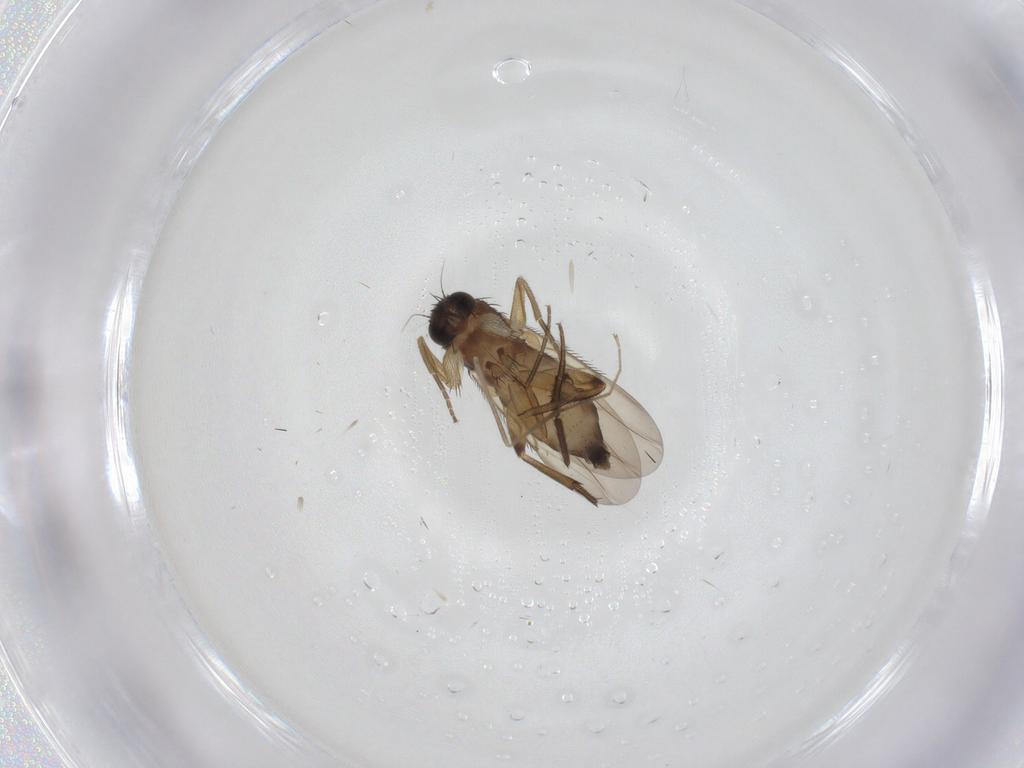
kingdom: Animalia
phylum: Arthropoda
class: Insecta
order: Diptera
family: Phoridae
